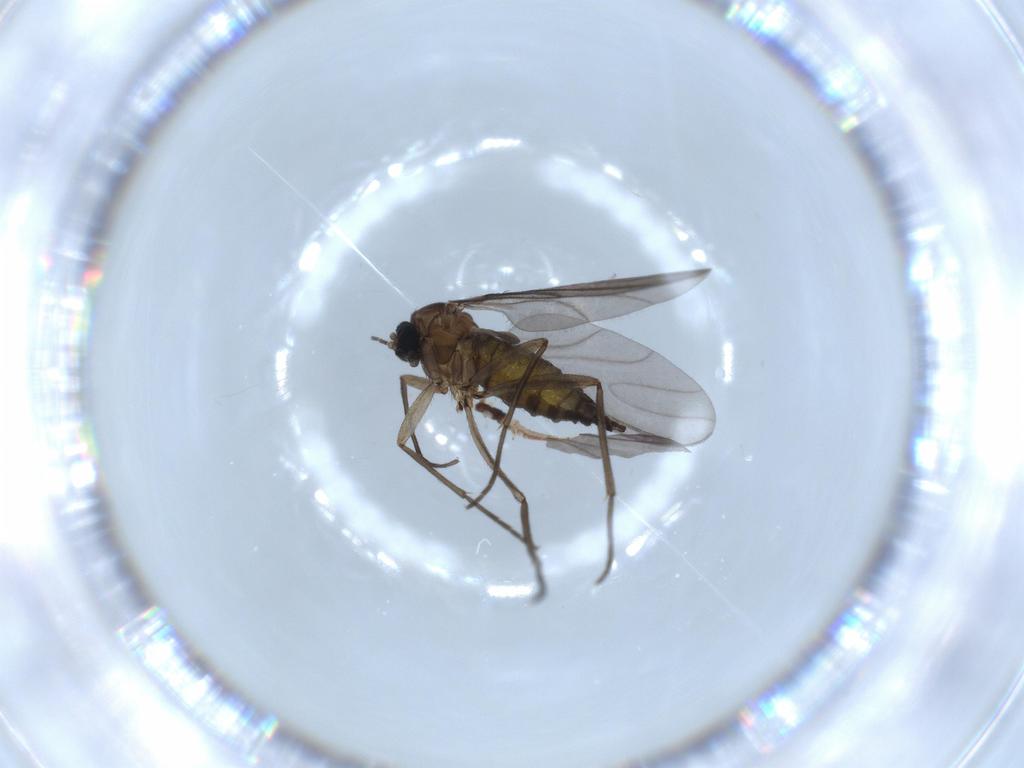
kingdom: Animalia
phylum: Arthropoda
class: Insecta
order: Diptera
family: Sciaridae
